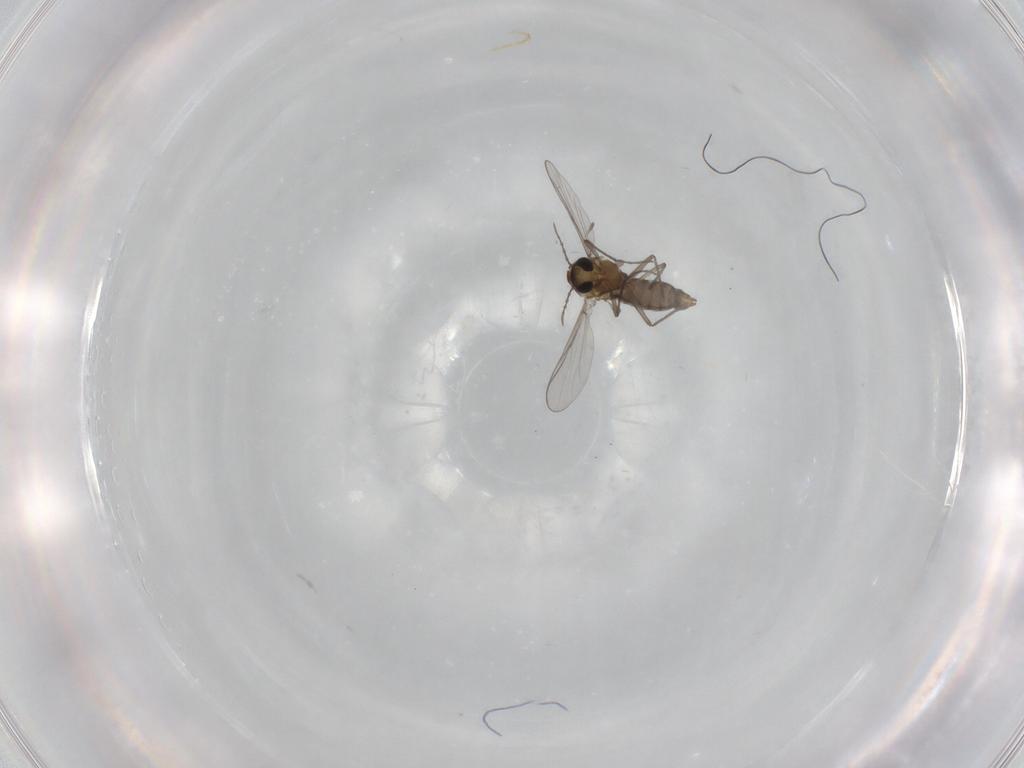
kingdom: Animalia
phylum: Arthropoda
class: Insecta
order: Diptera
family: Chironomidae
